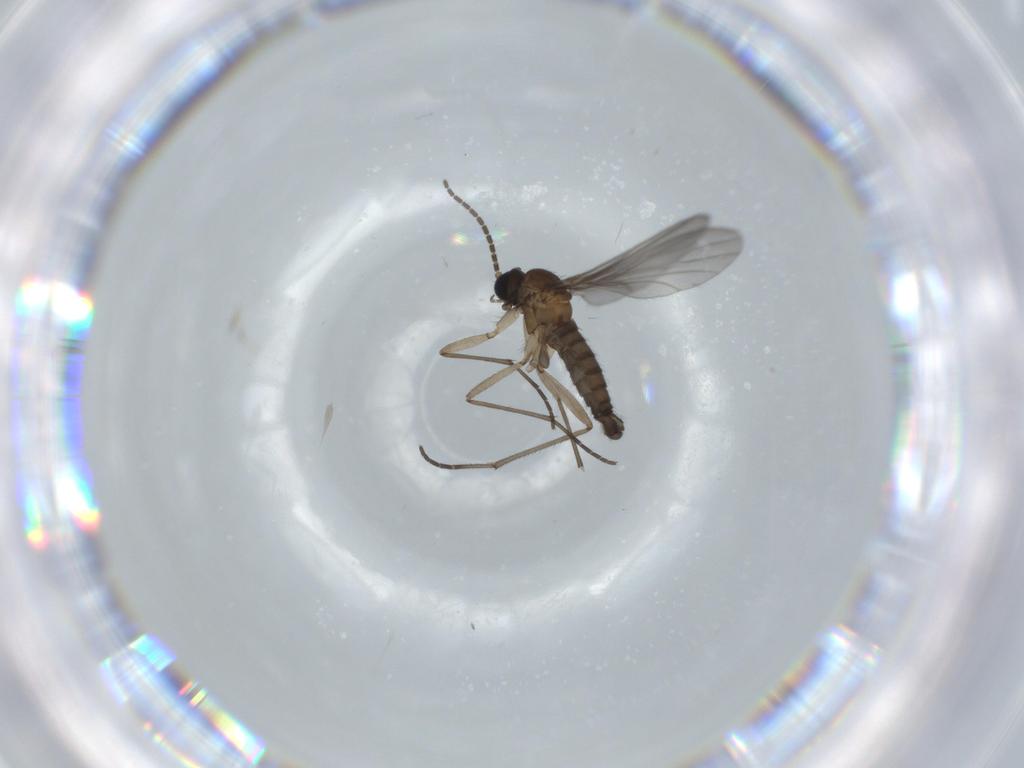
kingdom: Animalia
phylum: Arthropoda
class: Insecta
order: Diptera
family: Sciaridae
